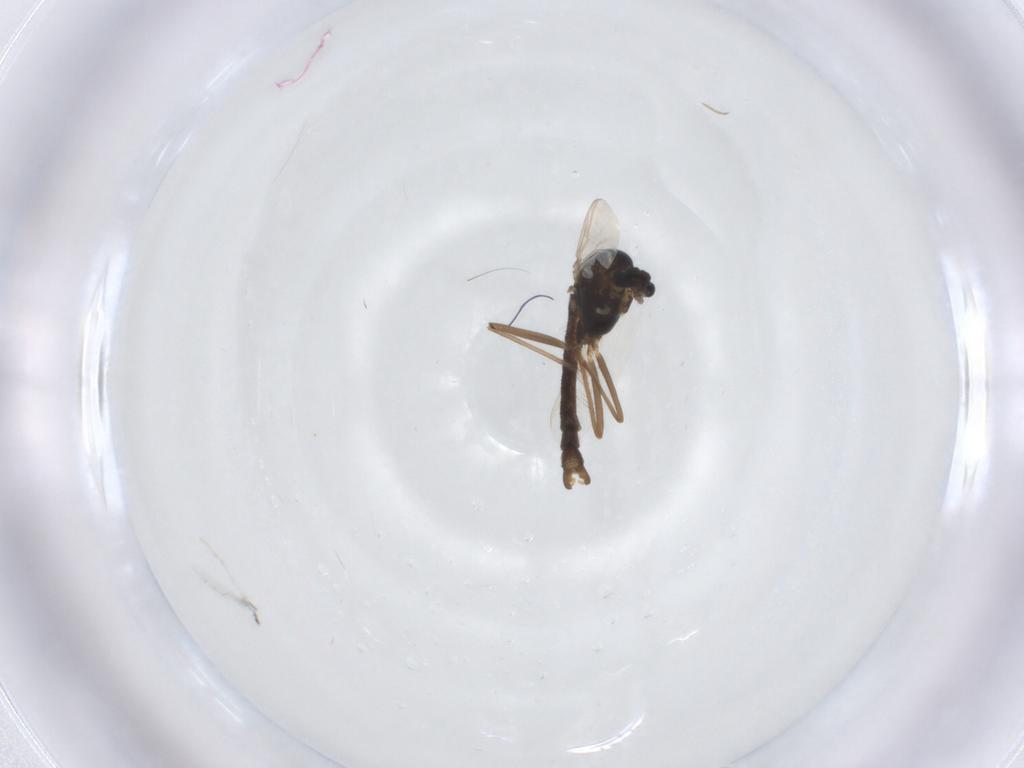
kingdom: Animalia
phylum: Arthropoda
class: Insecta
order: Diptera
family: Chironomidae
